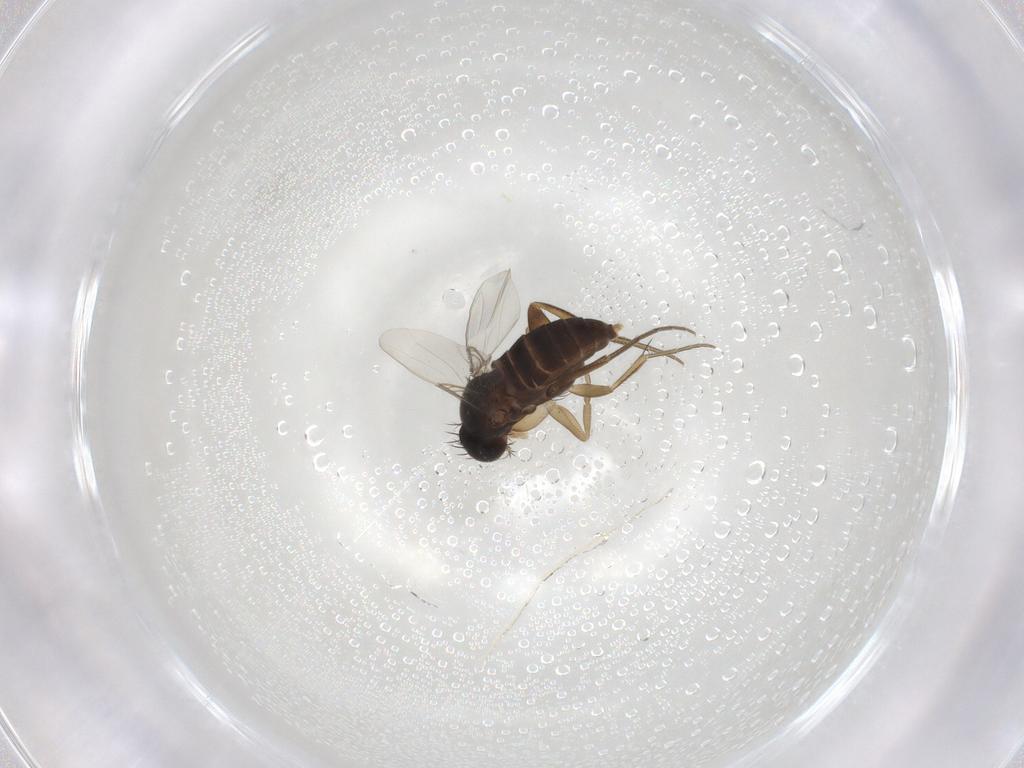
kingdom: Animalia
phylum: Arthropoda
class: Insecta
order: Diptera
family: Phoridae
